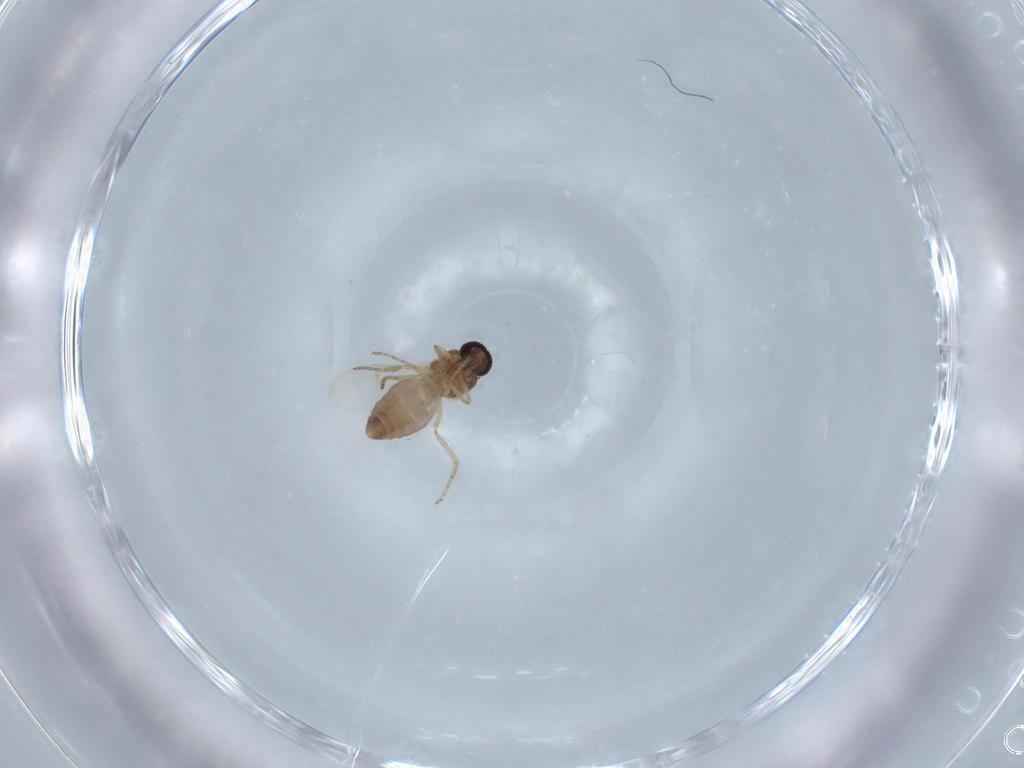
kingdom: Animalia
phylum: Arthropoda
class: Insecta
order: Diptera
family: Ceratopogonidae
